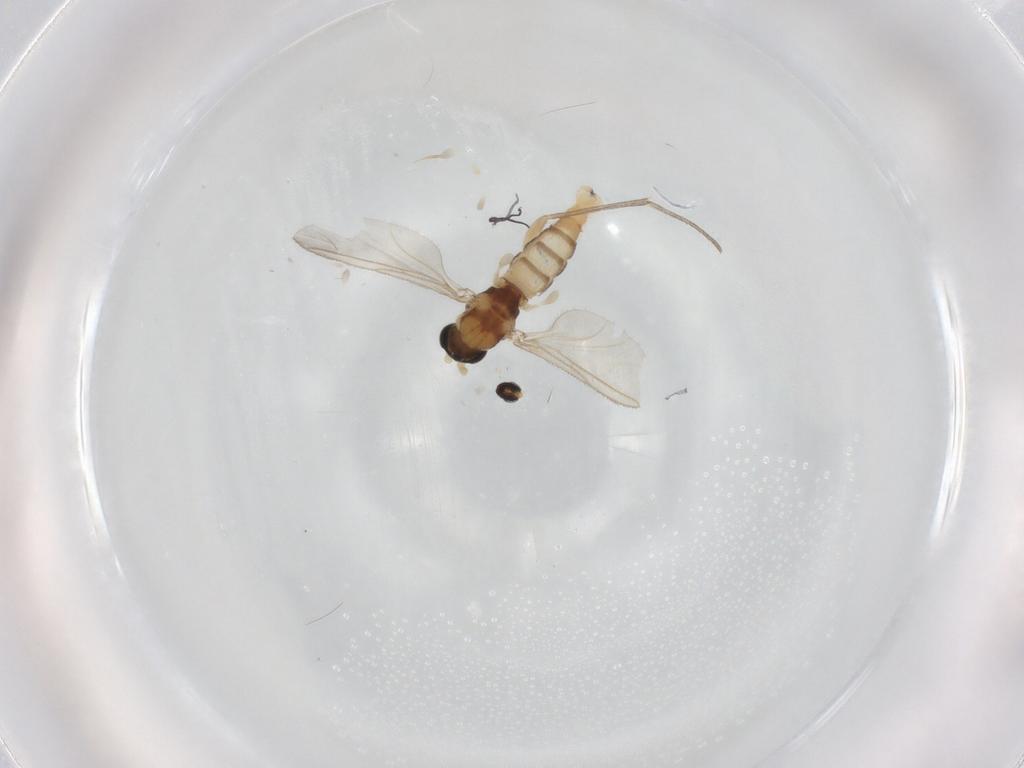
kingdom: Animalia
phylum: Arthropoda
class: Insecta
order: Diptera
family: Cecidomyiidae
